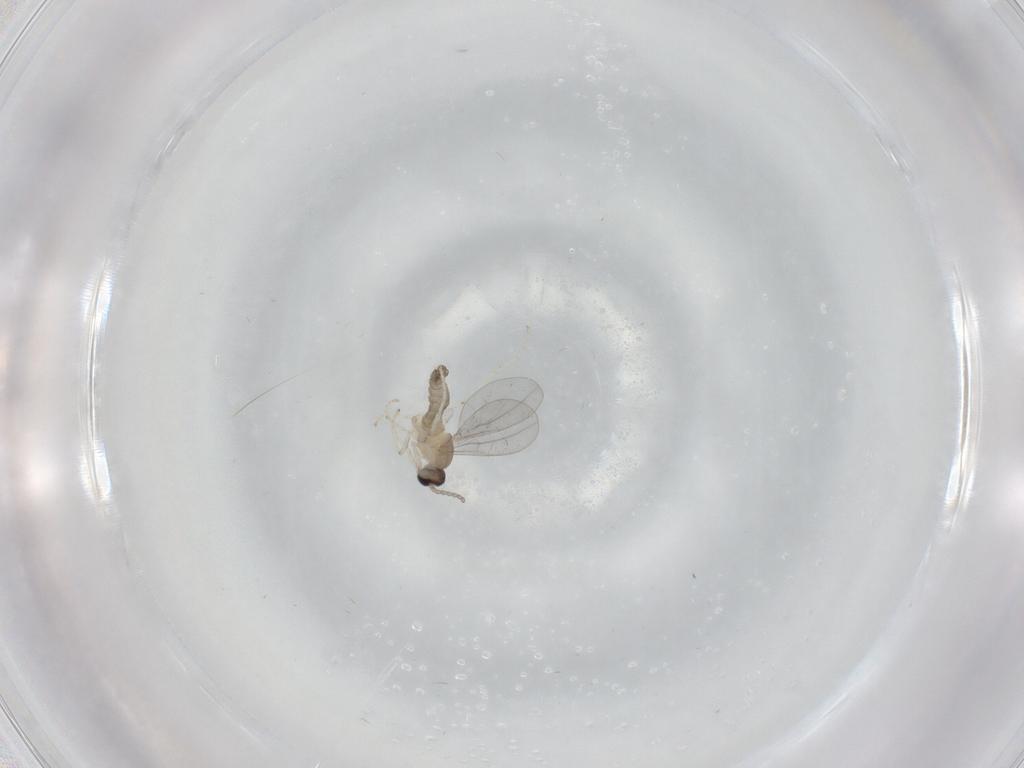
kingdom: Animalia
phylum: Arthropoda
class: Insecta
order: Diptera
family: Cecidomyiidae
